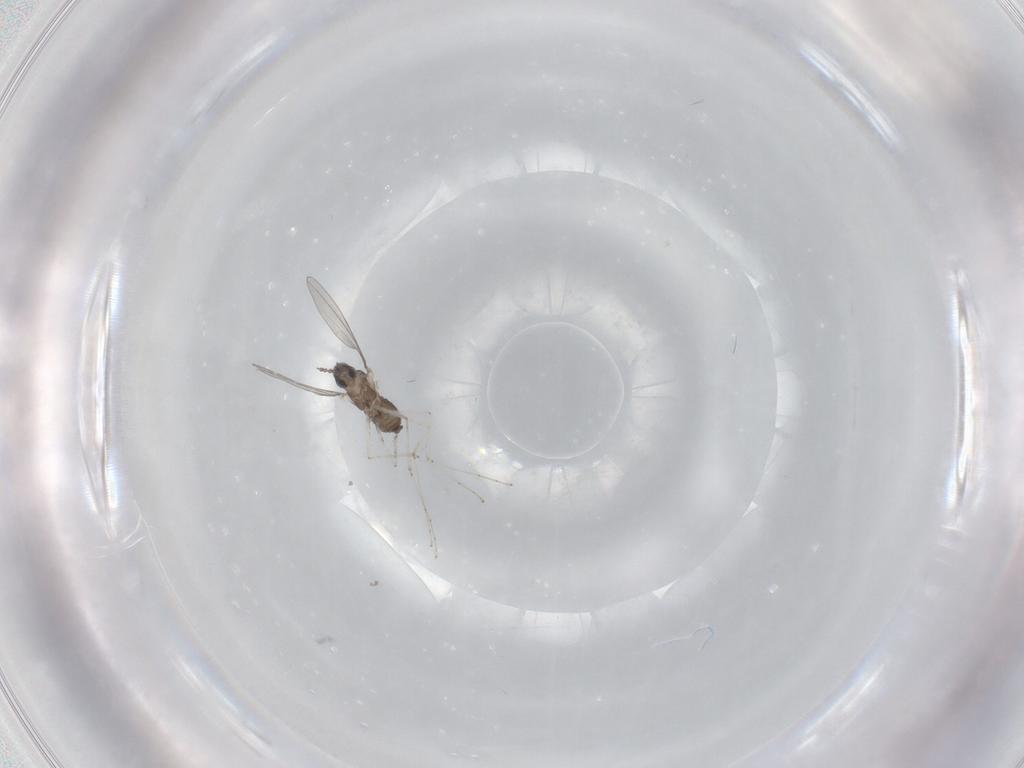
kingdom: Animalia
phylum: Arthropoda
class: Insecta
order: Diptera
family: Cecidomyiidae
